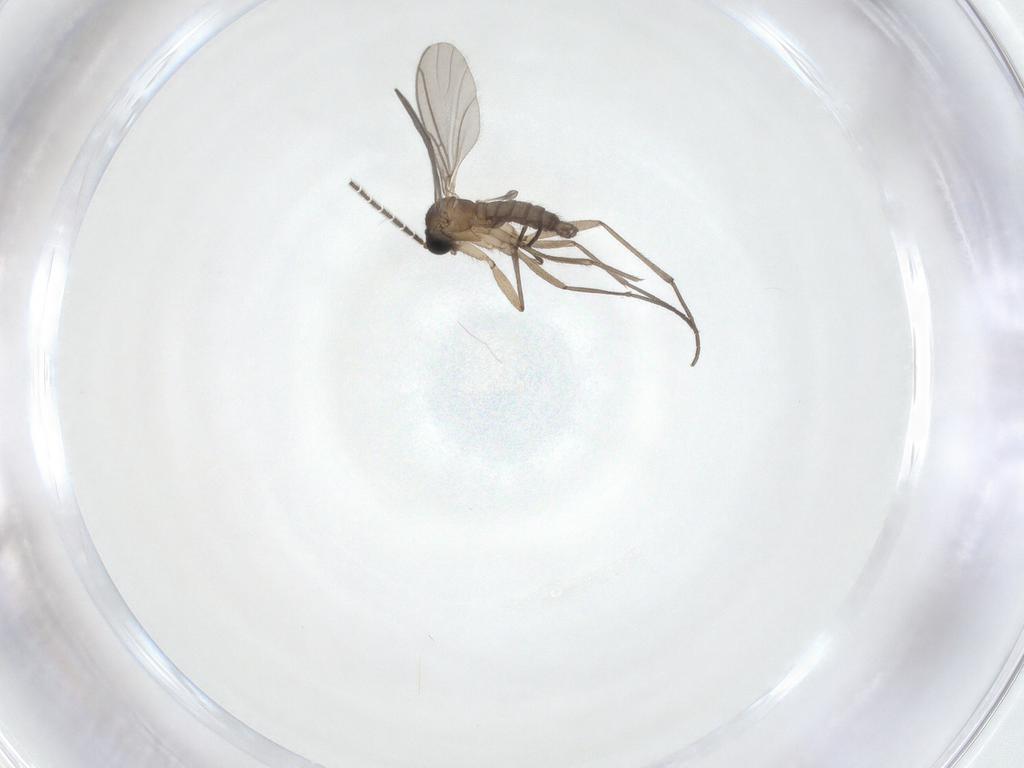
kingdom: Animalia
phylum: Arthropoda
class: Insecta
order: Diptera
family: Sciaridae
